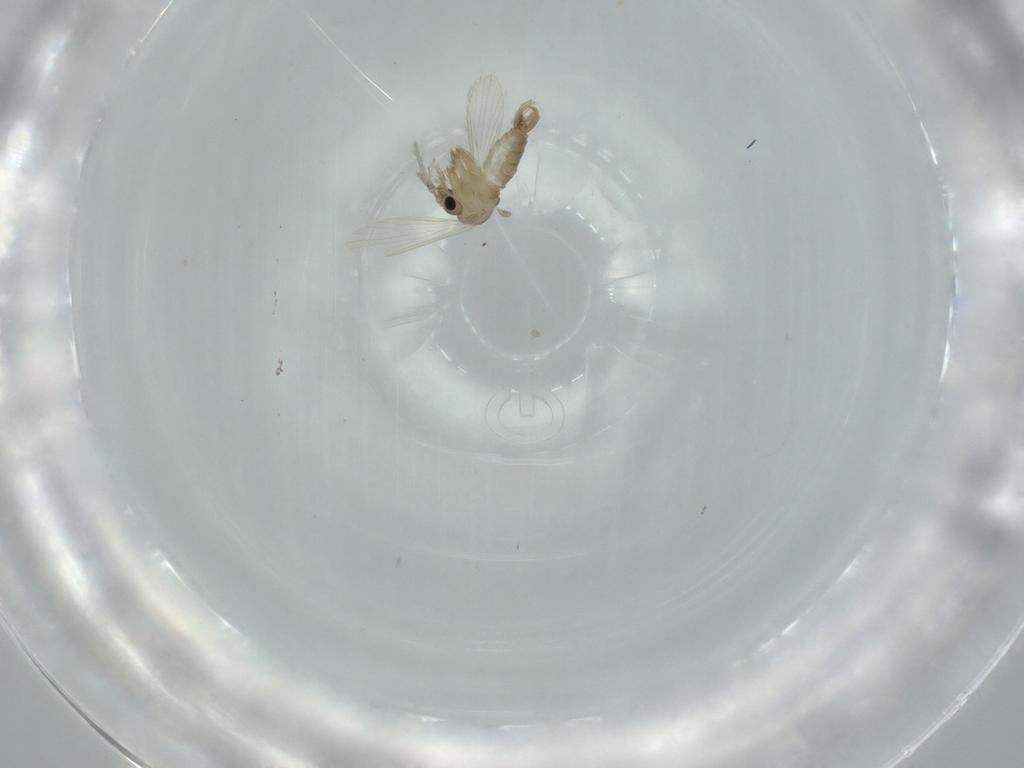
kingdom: Animalia
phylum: Arthropoda
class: Insecta
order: Diptera
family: Psychodidae
